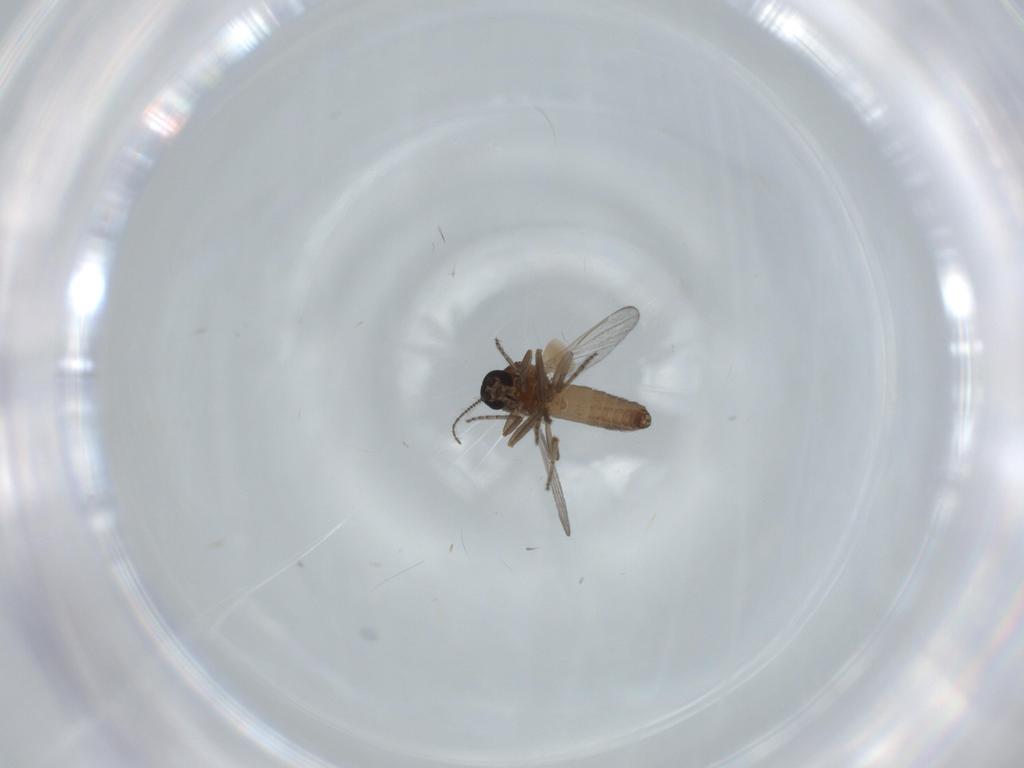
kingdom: Animalia
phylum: Arthropoda
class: Insecta
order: Diptera
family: Ceratopogonidae
